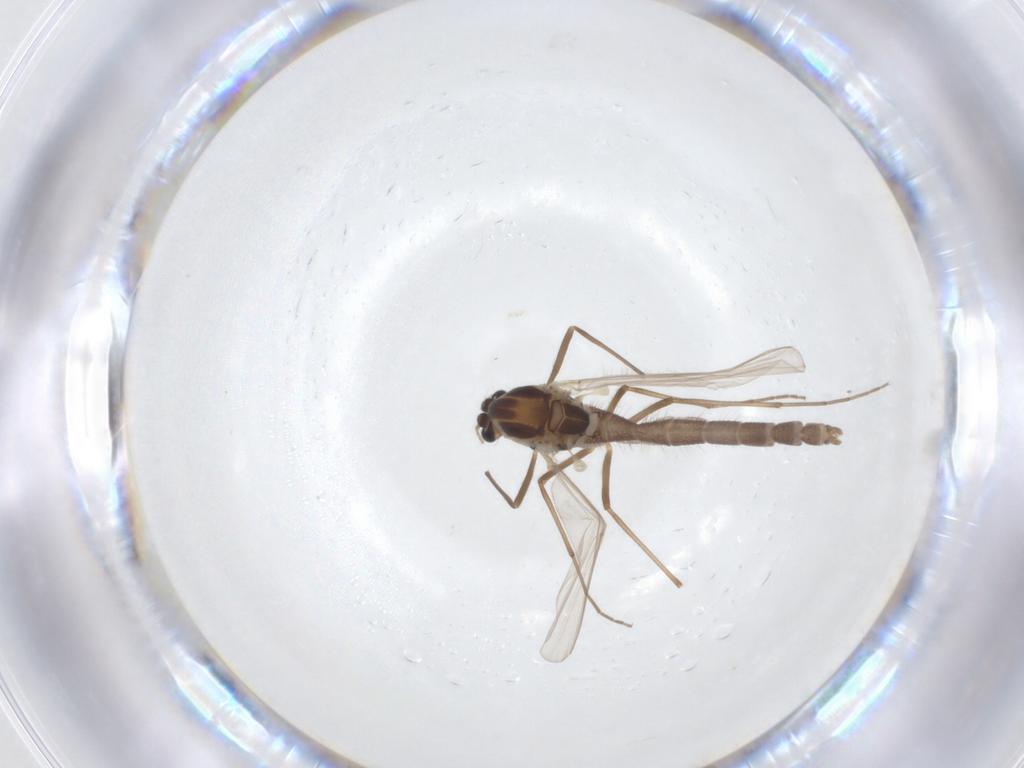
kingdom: Animalia
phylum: Arthropoda
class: Insecta
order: Diptera
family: Chironomidae
